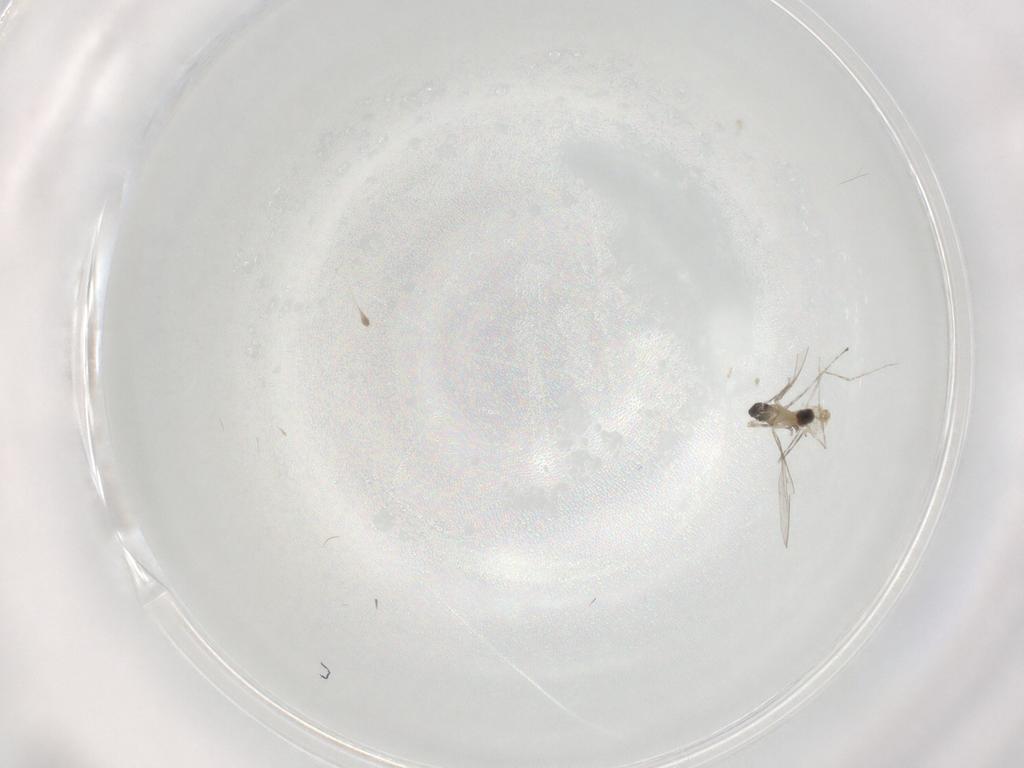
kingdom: Animalia
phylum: Arthropoda
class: Insecta
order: Diptera
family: Cecidomyiidae
